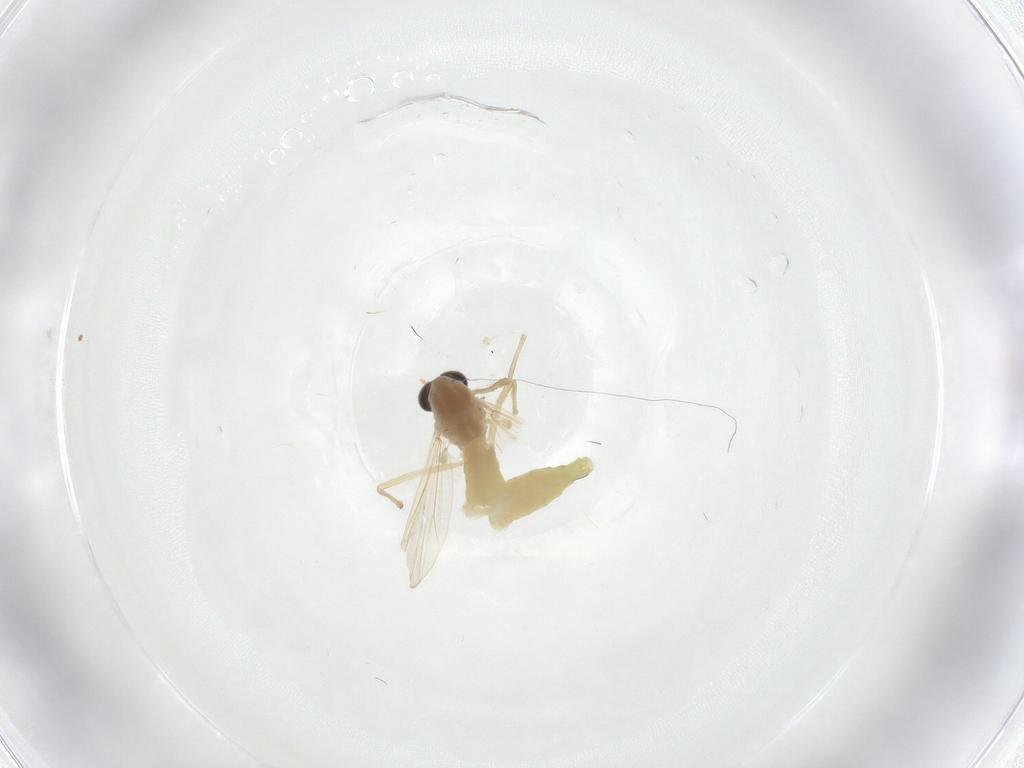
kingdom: Animalia
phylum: Arthropoda
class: Insecta
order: Diptera
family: Chironomidae
